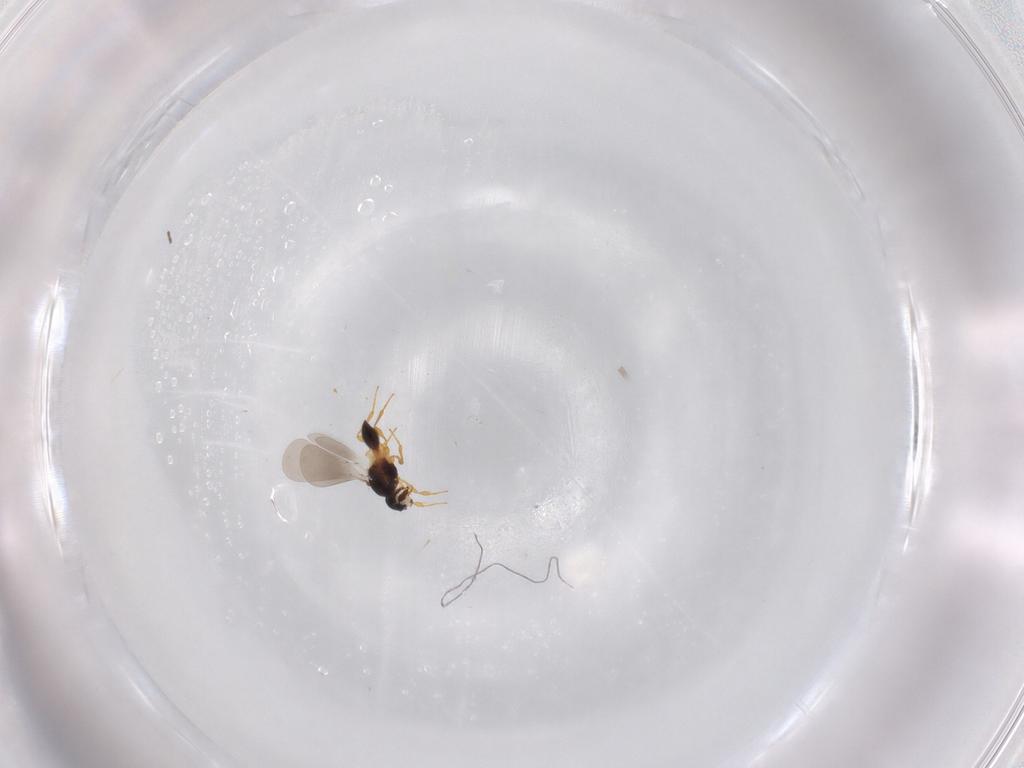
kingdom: Animalia
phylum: Arthropoda
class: Insecta
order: Hymenoptera
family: Platygastridae
